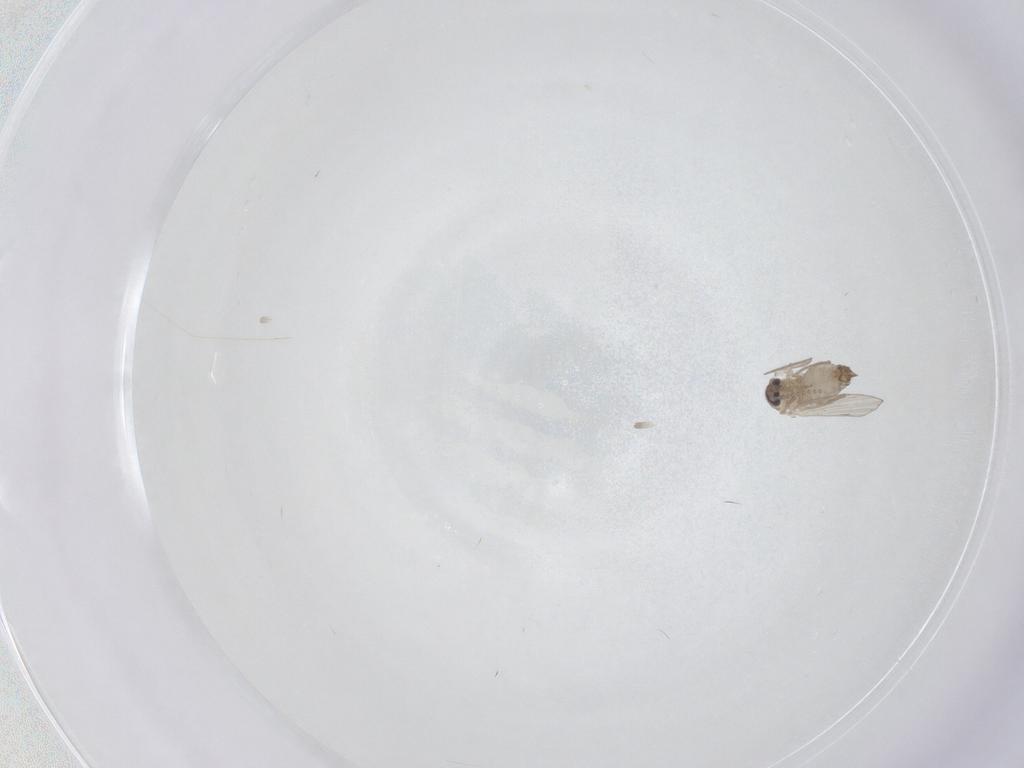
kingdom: Animalia
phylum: Arthropoda
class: Insecta
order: Diptera
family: Psychodidae
